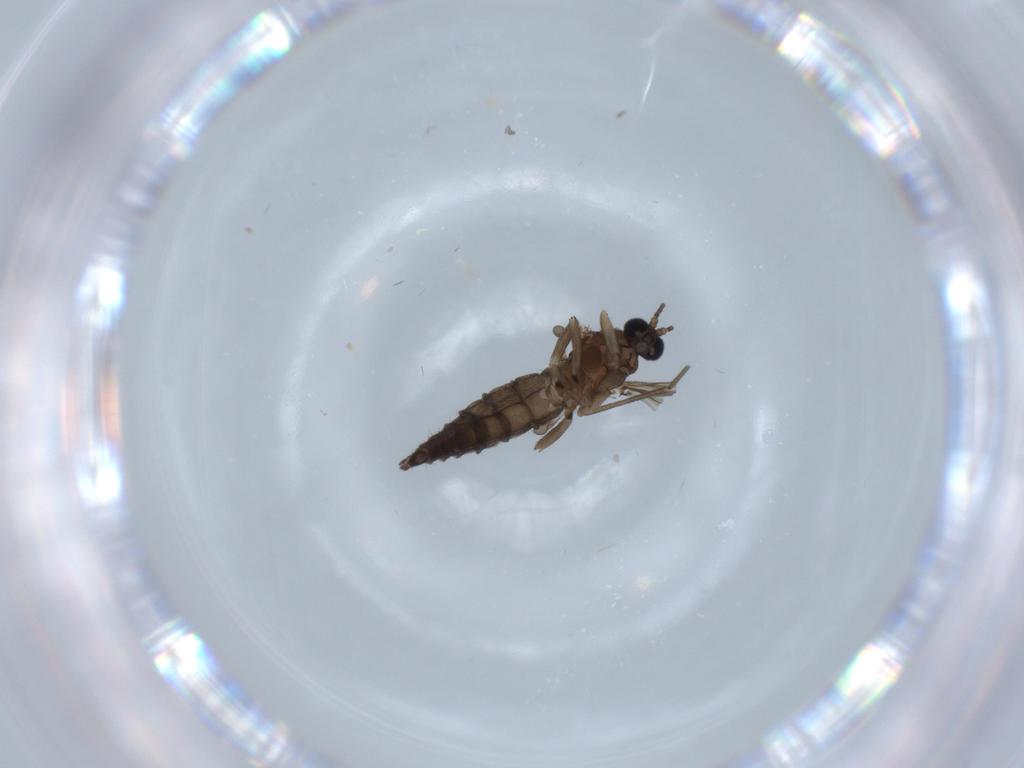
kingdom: Animalia
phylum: Arthropoda
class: Insecta
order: Diptera
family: Sciaridae
